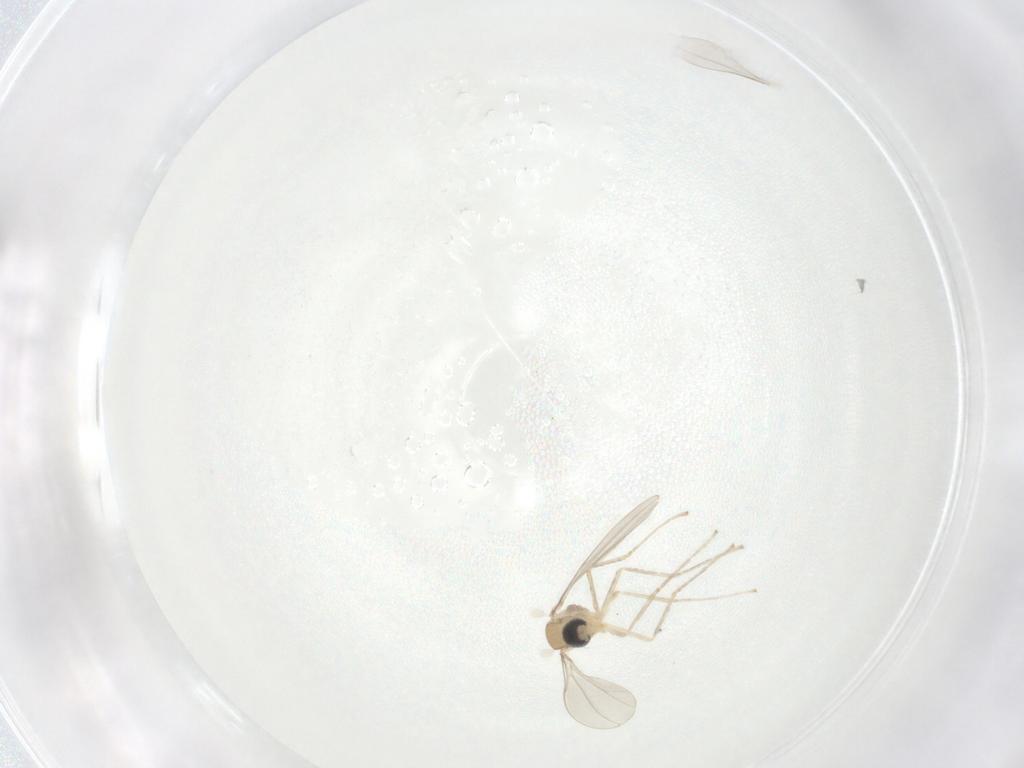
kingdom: Animalia
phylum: Arthropoda
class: Insecta
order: Diptera
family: Cecidomyiidae
